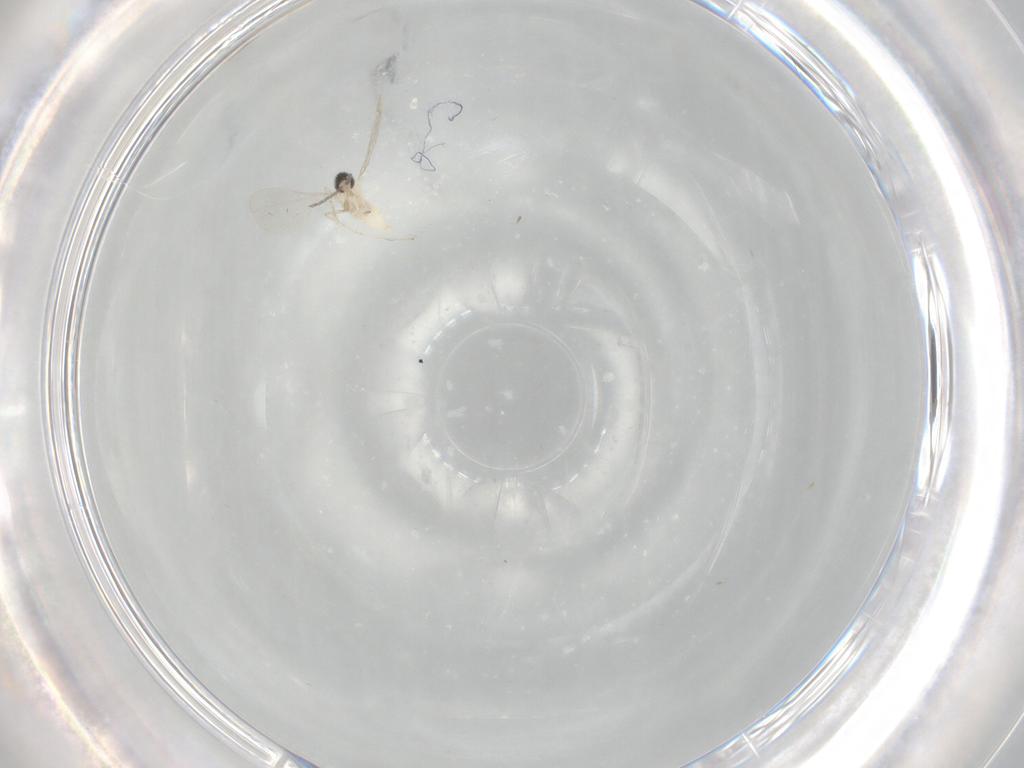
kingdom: Animalia
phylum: Arthropoda
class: Insecta
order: Diptera
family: Cecidomyiidae
